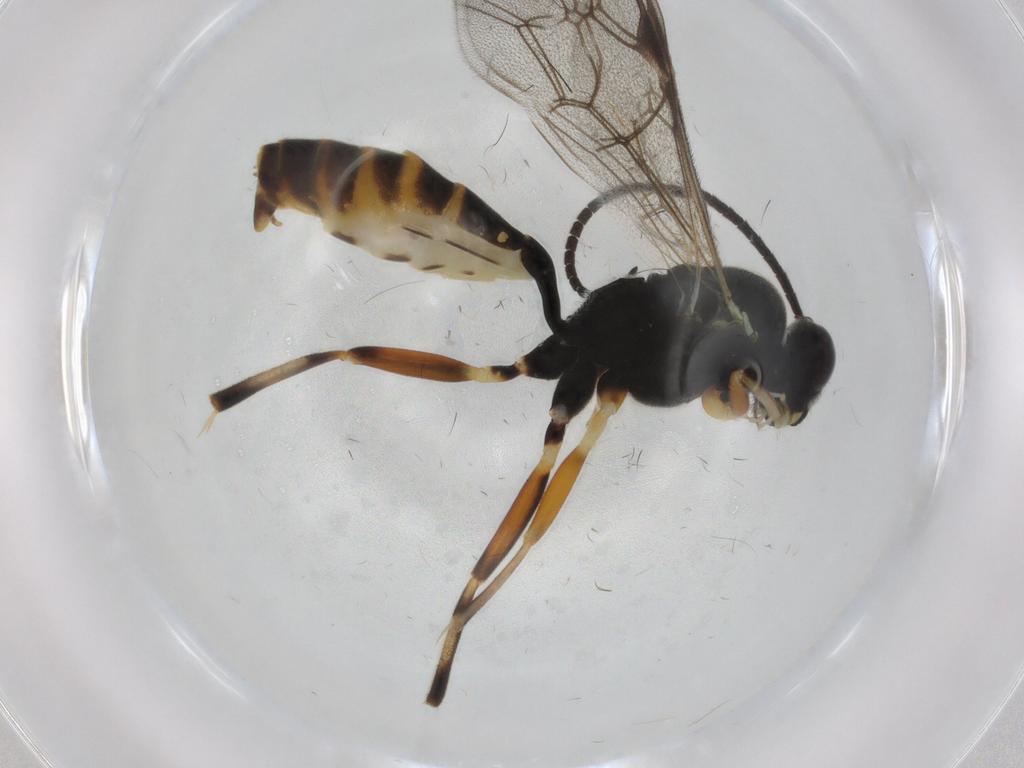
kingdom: Animalia
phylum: Arthropoda
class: Insecta
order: Hymenoptera
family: Ichneumonidae
